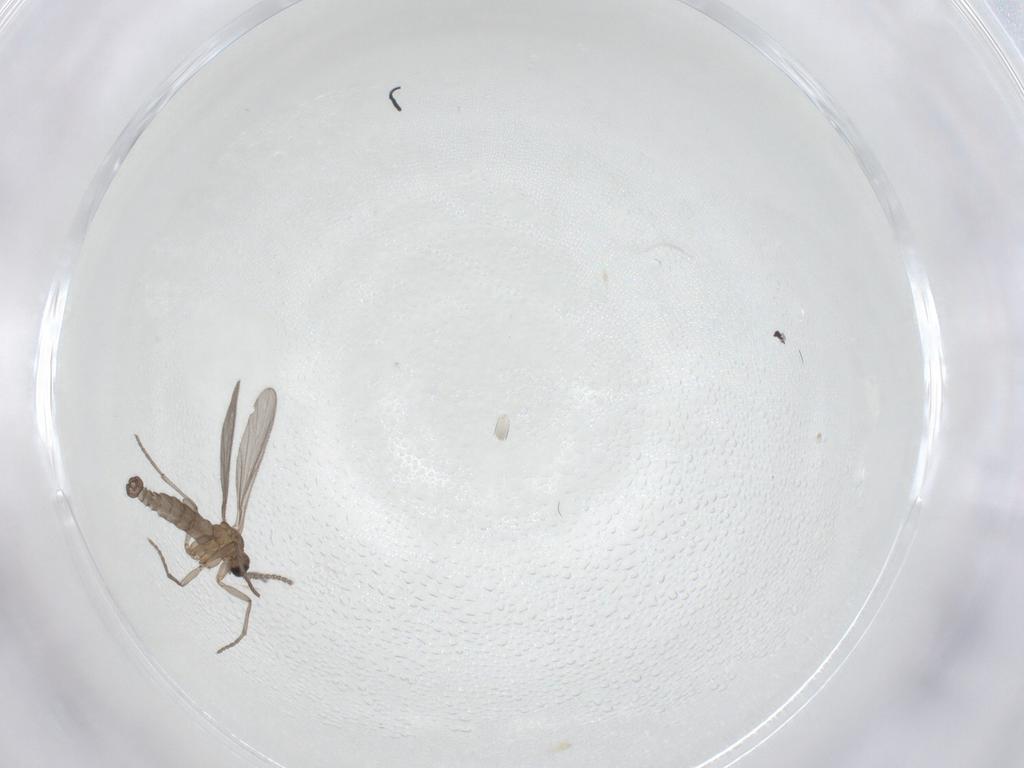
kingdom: Animalia
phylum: Arthropoda
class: Insecta
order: Diptera
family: Sciaridae
